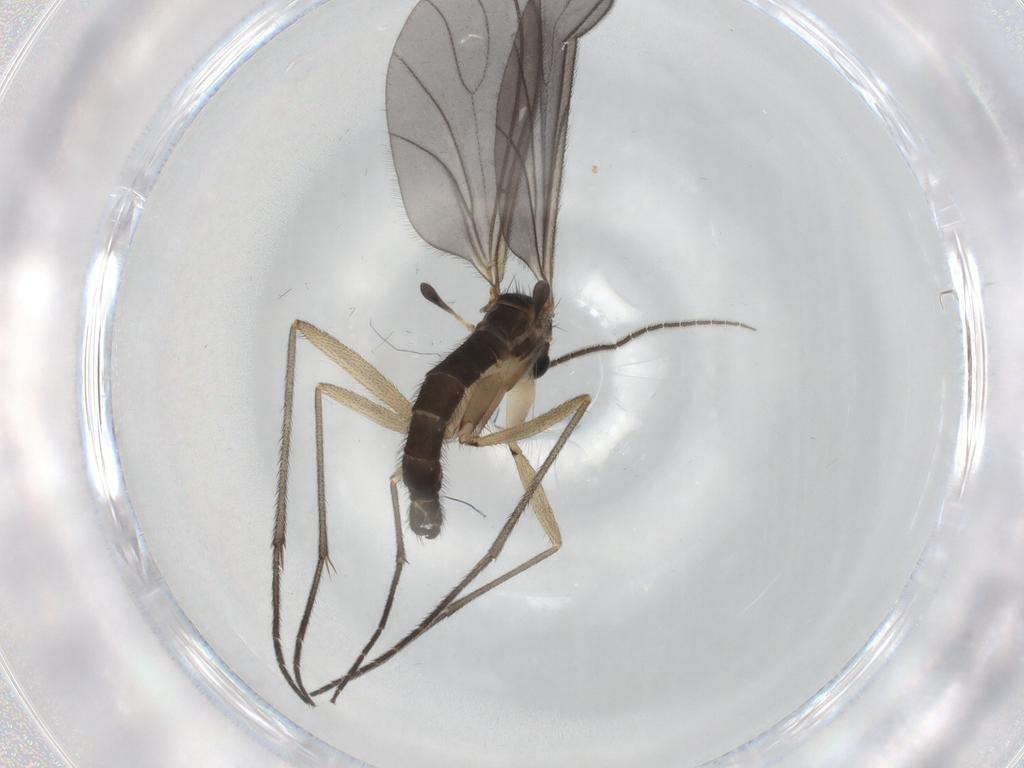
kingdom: Animalia
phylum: Arthropoda
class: Insecta
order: Diptera
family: Sciaridae
